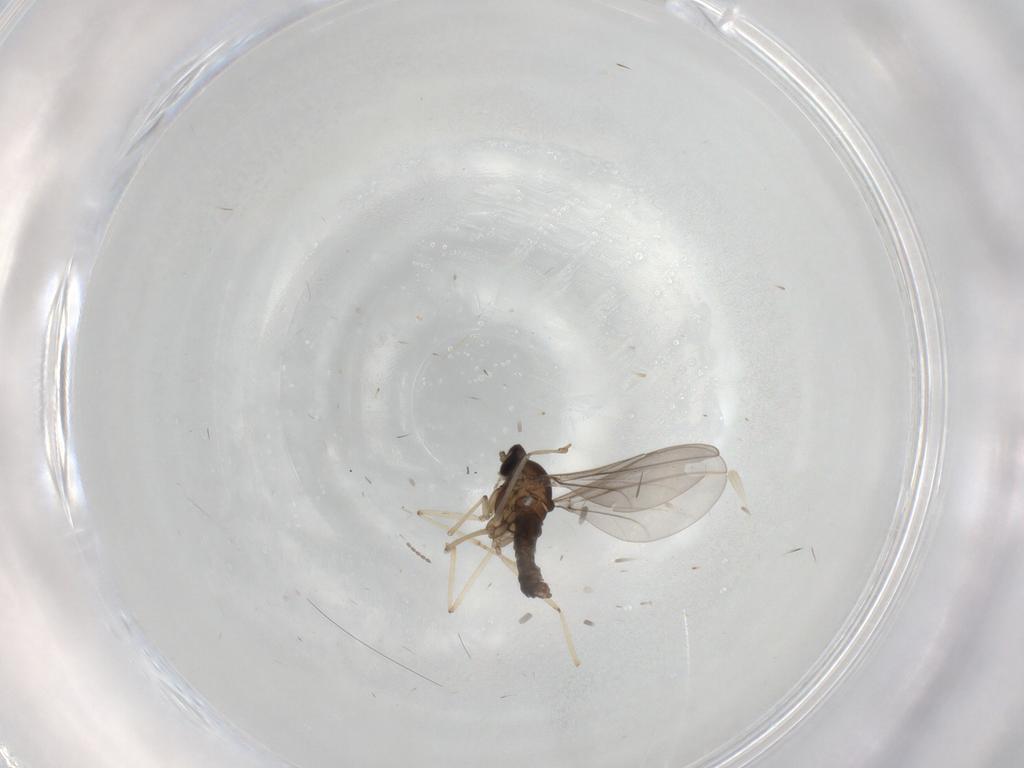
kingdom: Animalia
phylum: Arthropoda
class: Insecta
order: Diptera
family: Cecidomyiidae
